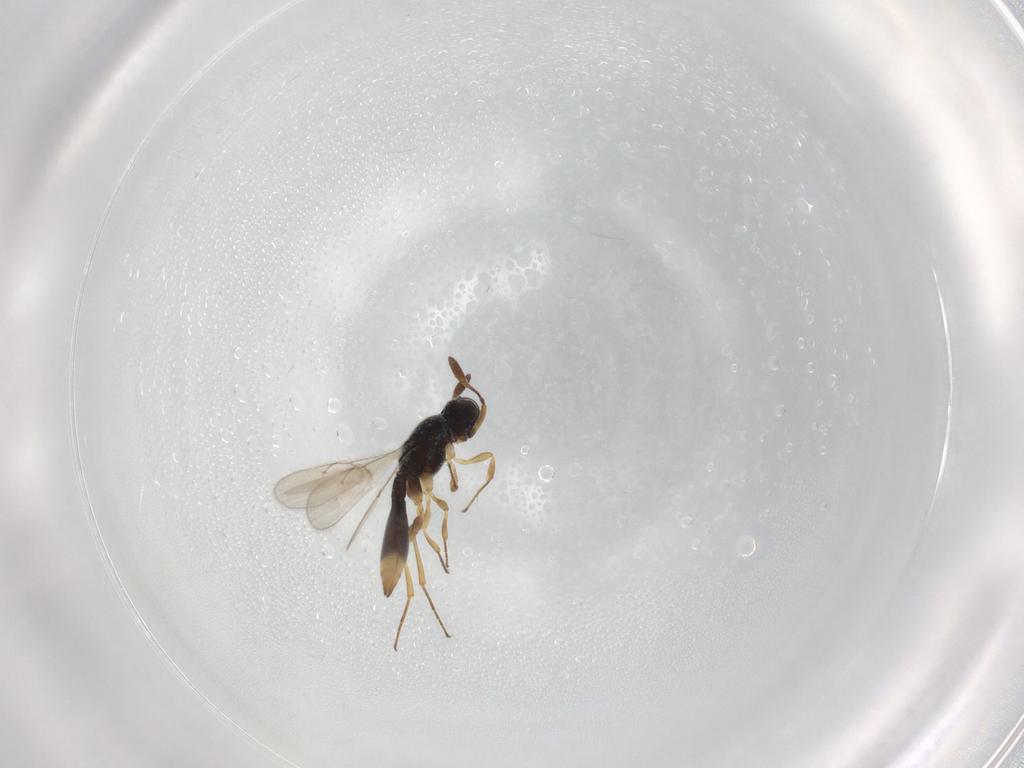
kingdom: Animalia
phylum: Arthropoda
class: Insecta
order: Hymenoptera
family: Scelionidae
